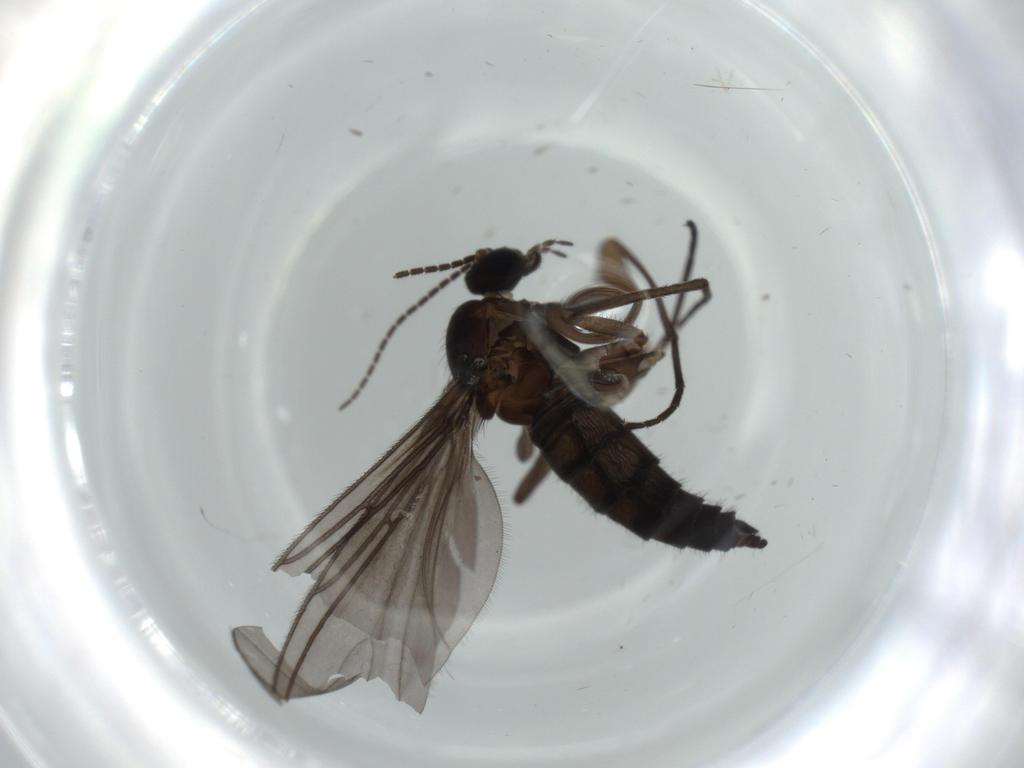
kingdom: Animalia
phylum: Arthropoda
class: Insecta
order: Diptera
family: Sciaridae
